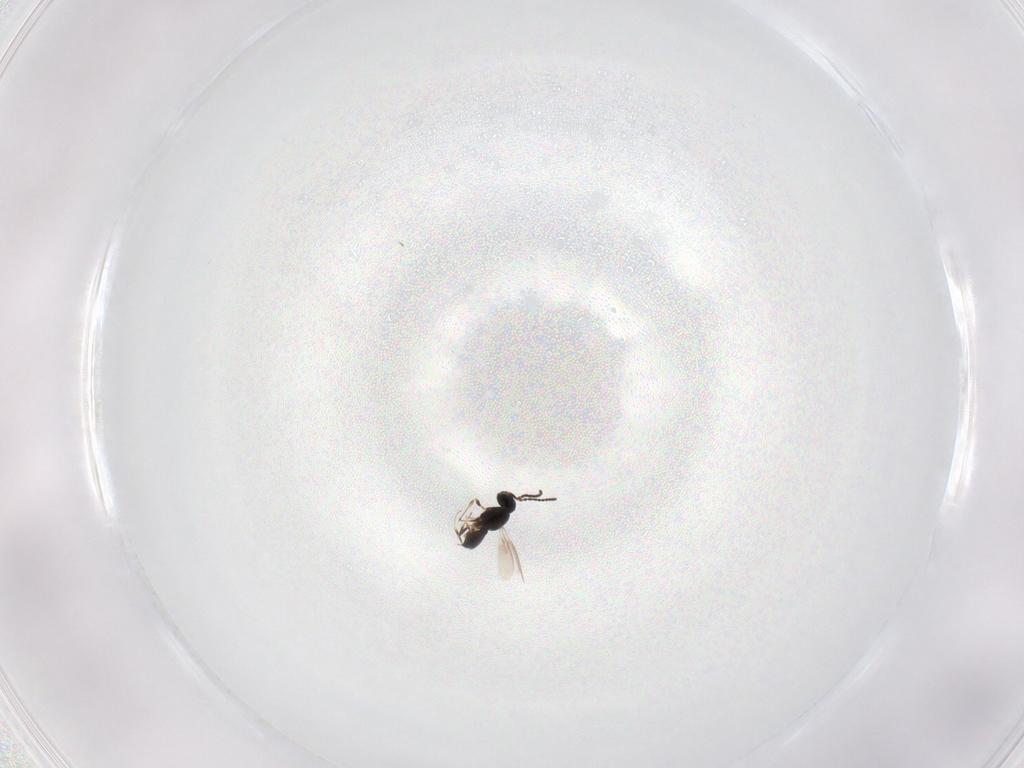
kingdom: Animalia
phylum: Arthropoda
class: Insecta
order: Hymenoptera
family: Scelionidae
